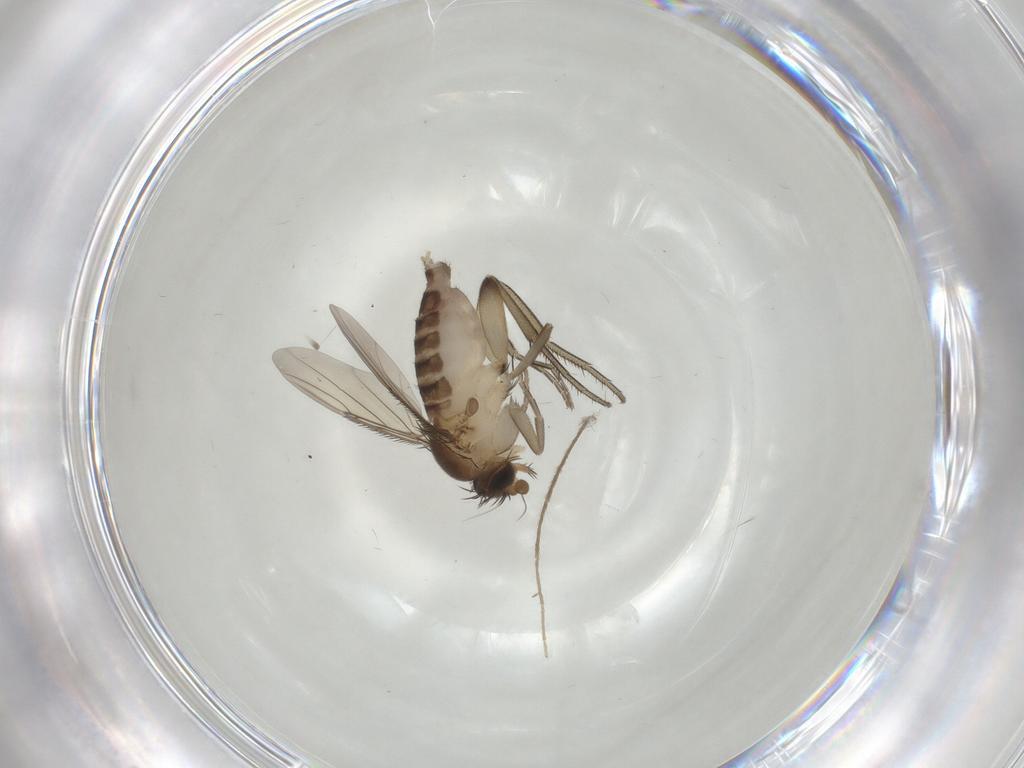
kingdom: Animalia
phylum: Arthropoda
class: Insecta
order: Diptera
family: Phoridae
